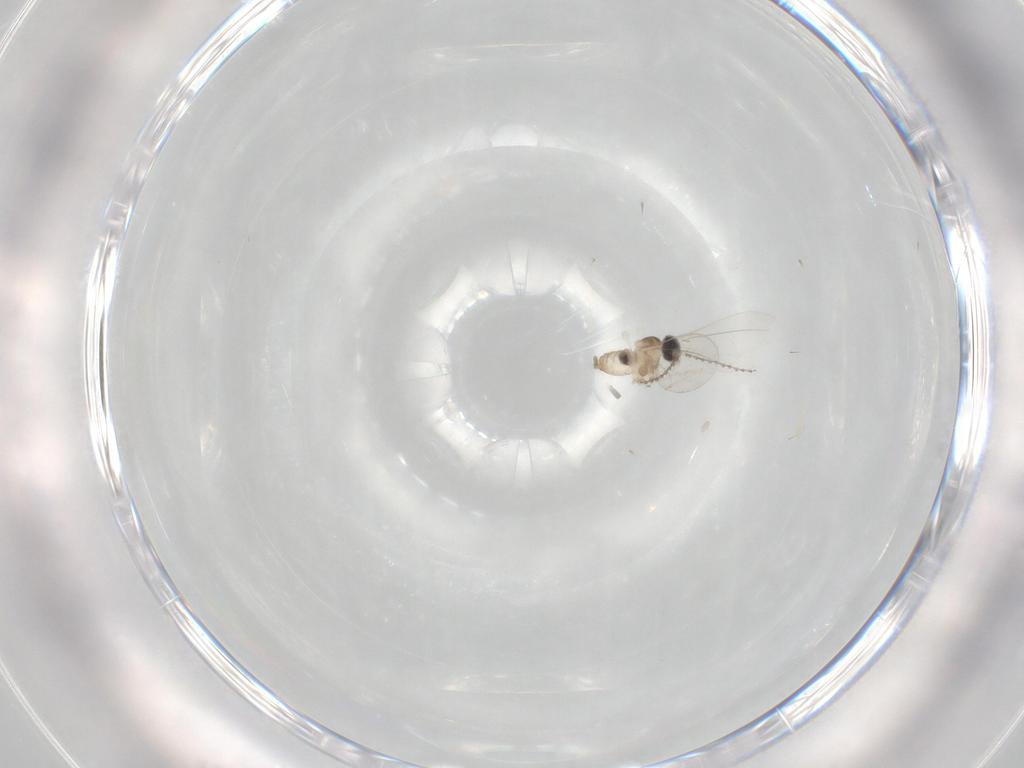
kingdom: Animalia
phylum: Arthropoda
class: Insecta
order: Diptera
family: Cecidomyiidae
